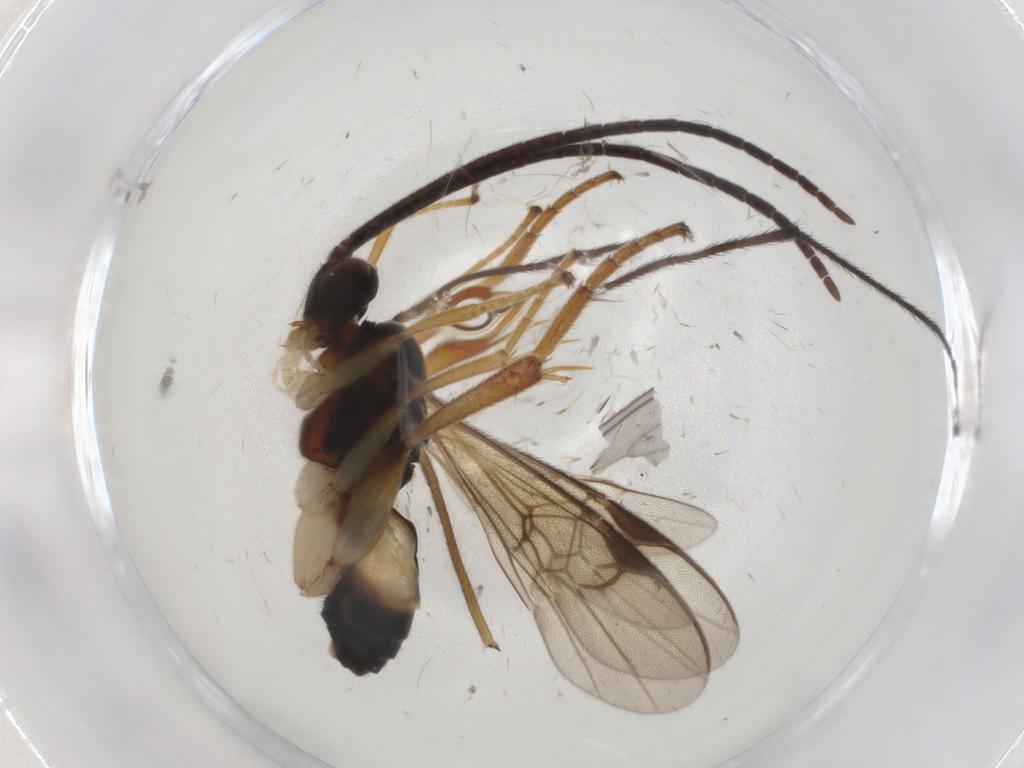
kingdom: Animalia
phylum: Arthropoda
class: Insecta
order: Hymenoptera
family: Braconidae
